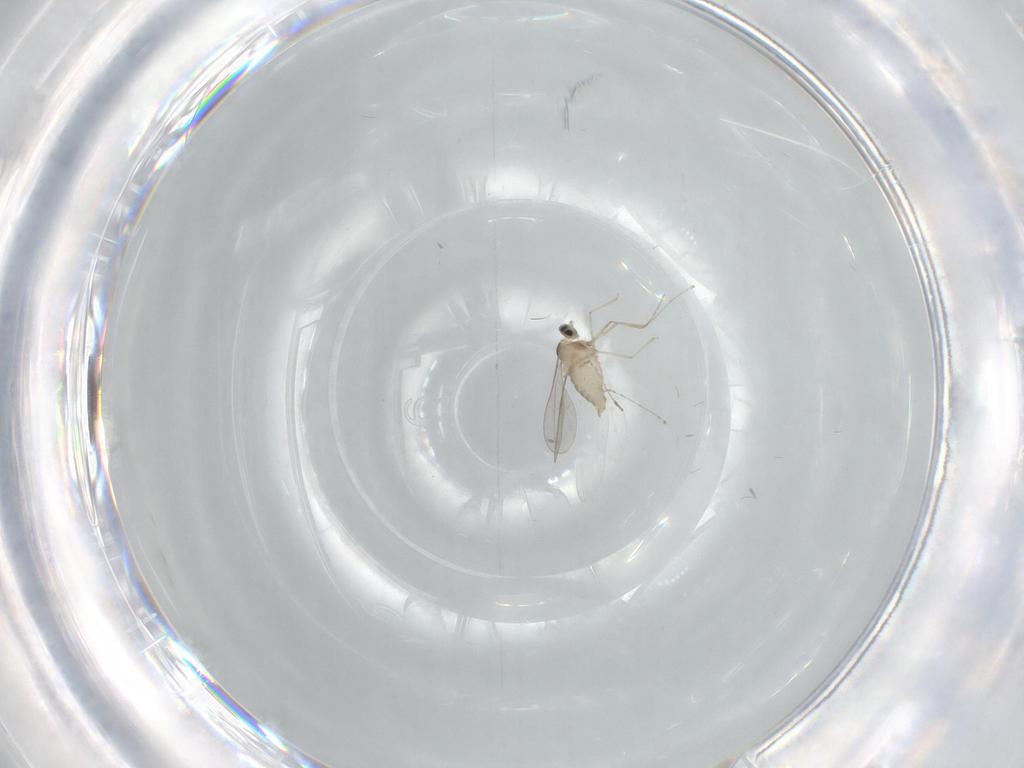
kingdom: Animalia
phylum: Arthropoda
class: Insecta
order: Diptera
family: Cecidomyiidae
